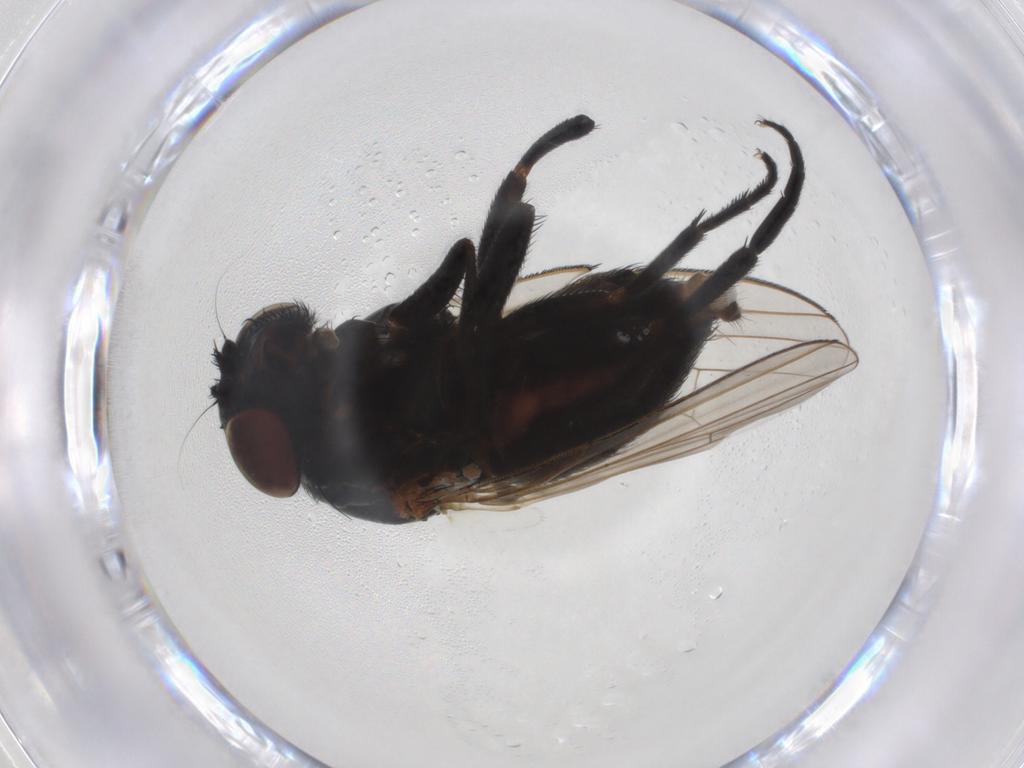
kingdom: Animalia
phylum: Arthropoda
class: Insecta
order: Diptera
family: Milichiidae
